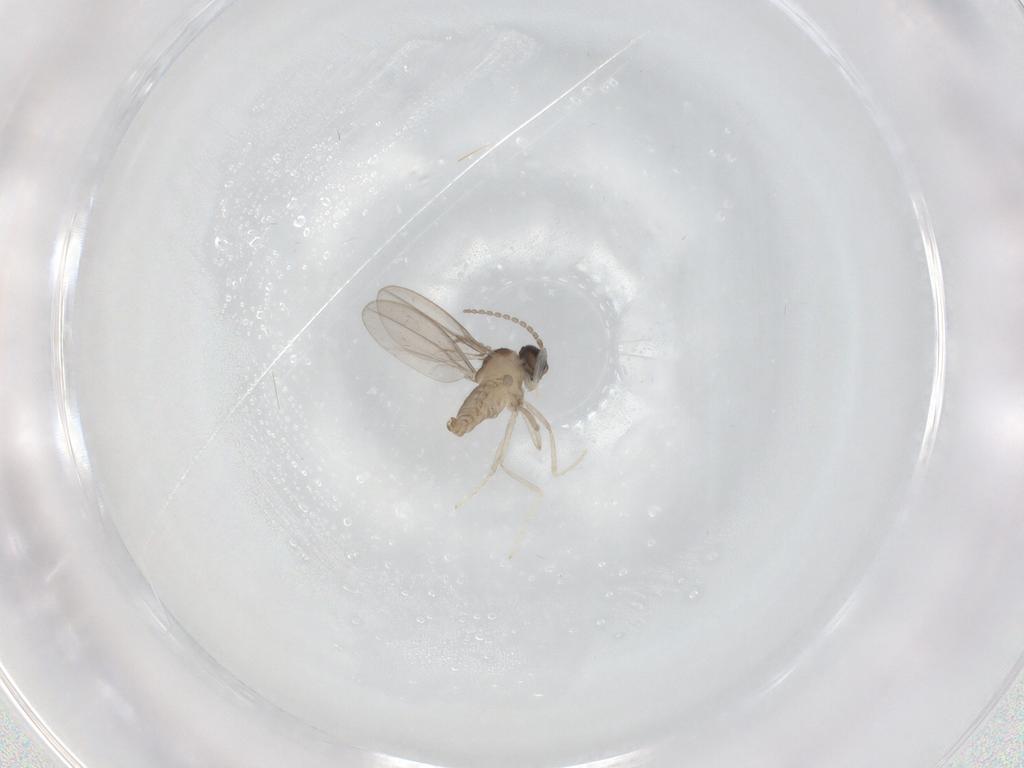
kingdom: Animalia
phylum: Arthropoda
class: Insecta
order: Diptera
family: Cecidomyiidae
